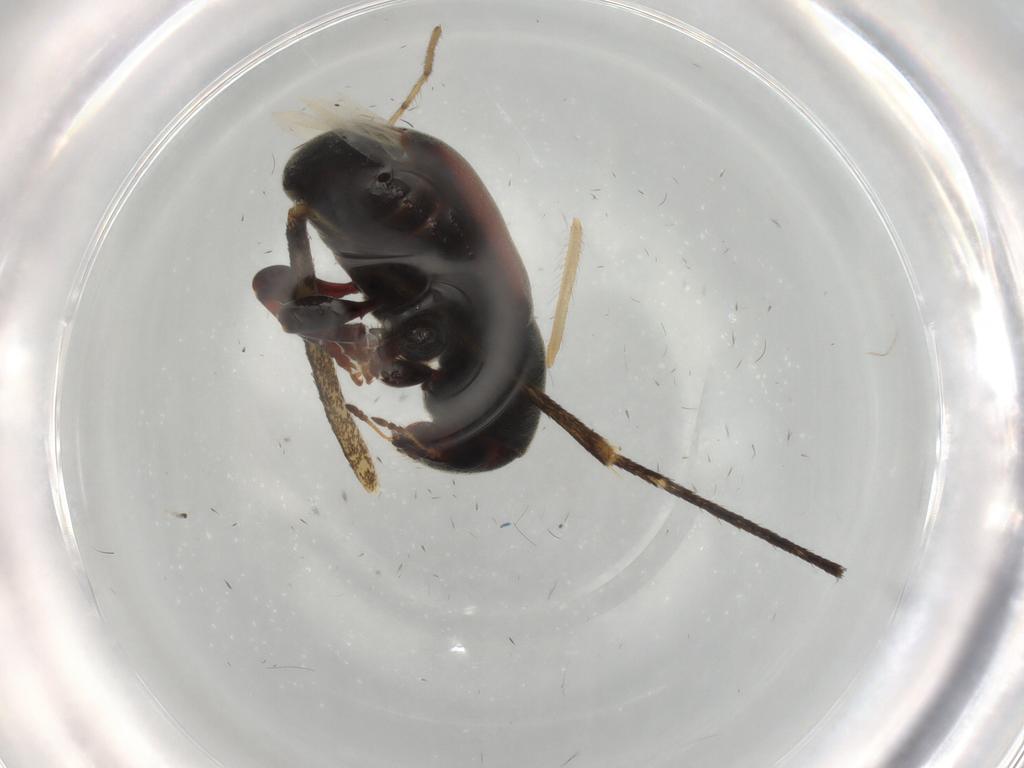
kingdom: Animalia
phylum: Arthropoda
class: Insecta
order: Coleoptera
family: Anthribidae
